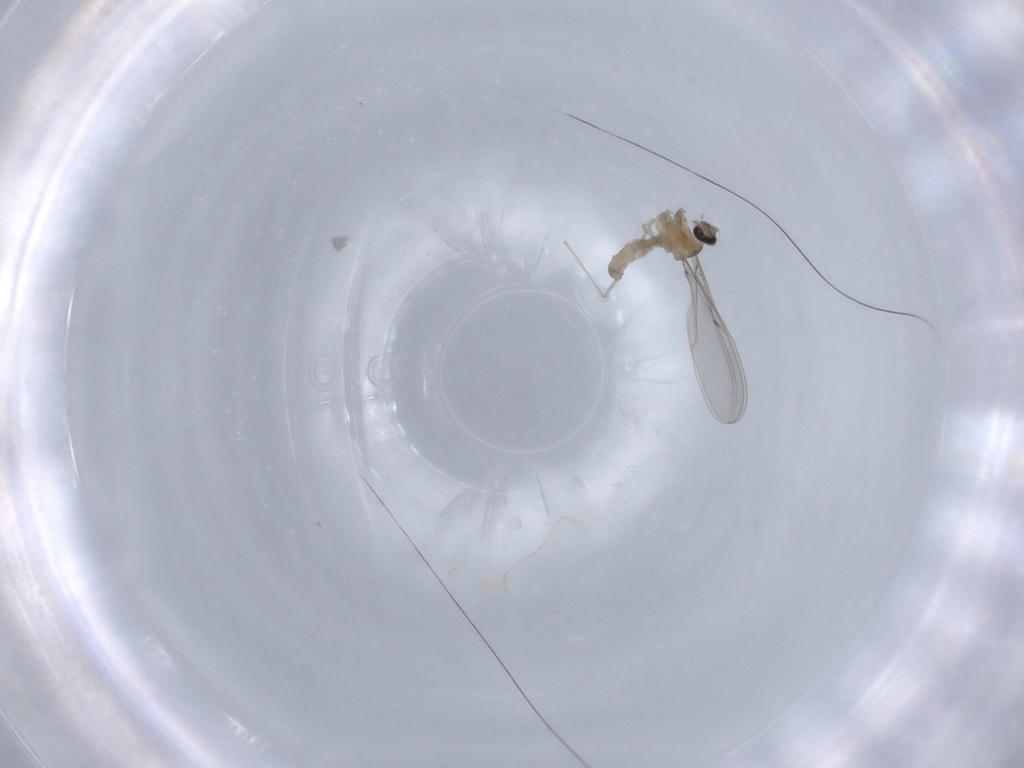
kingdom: Animalia
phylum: Arthropoda
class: Insecta
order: Diptera
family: Cecidomyiidae
